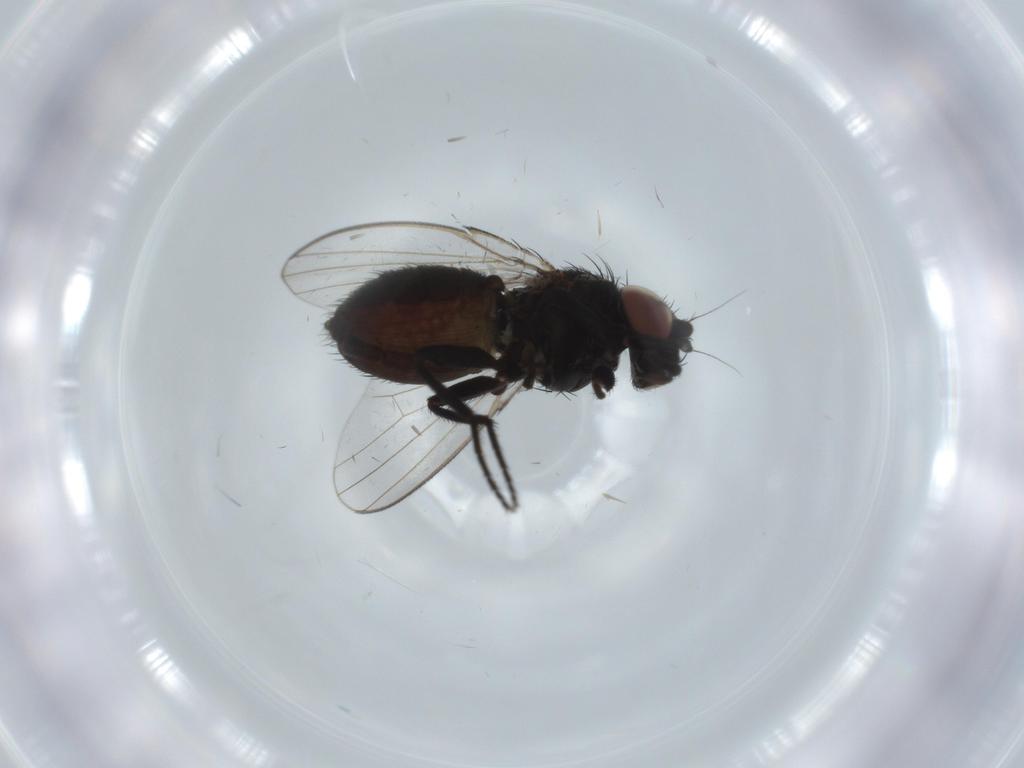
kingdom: Animalia
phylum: Arthropoda
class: Insecta
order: Diptera
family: Milichiidae
